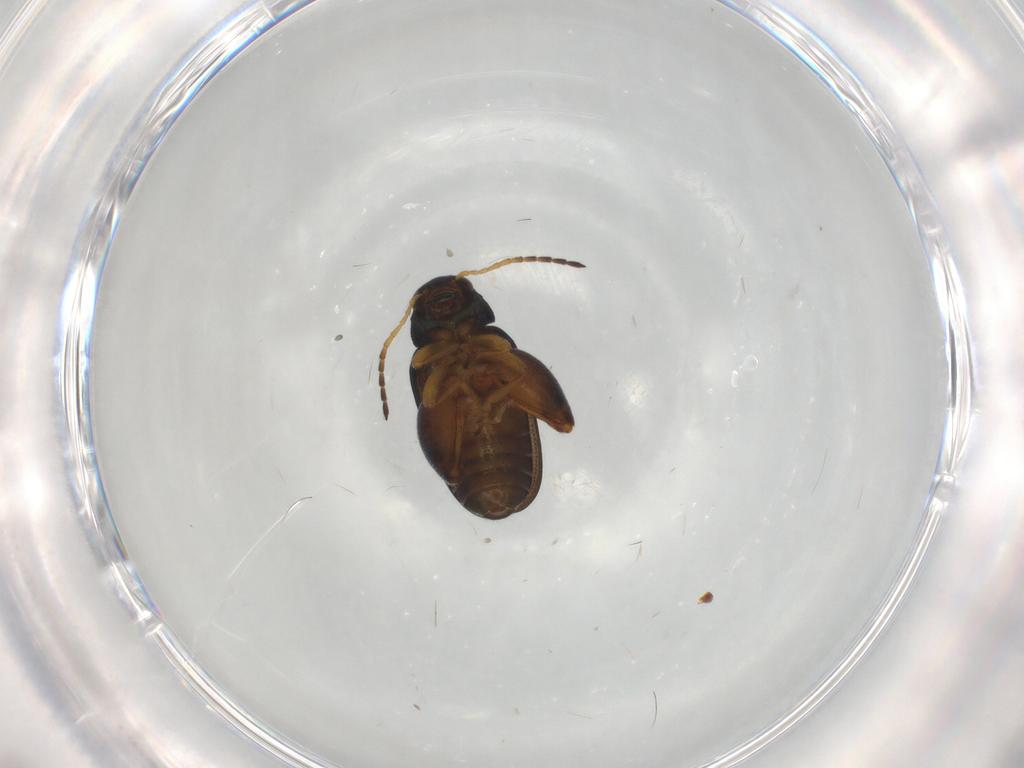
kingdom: Animalia
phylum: Arthropoda
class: Insecta
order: Coleoptera
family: Chrysomelidae
